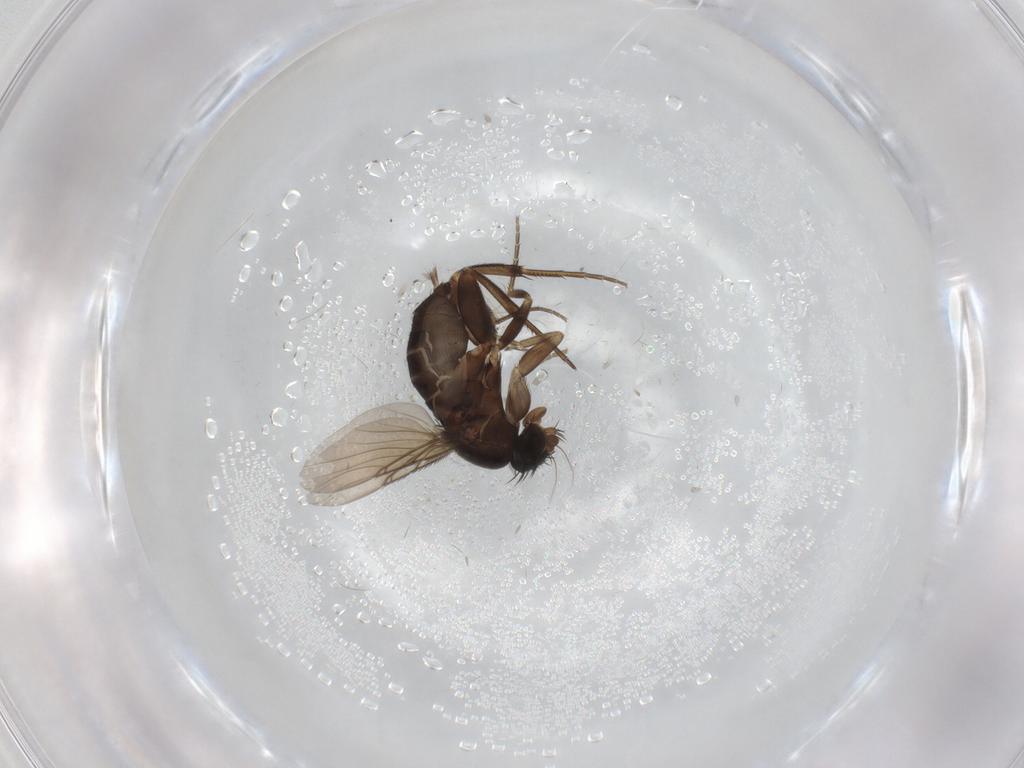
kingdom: Animalia
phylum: Arthropoda
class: Insecta
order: Diptera
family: Phoridae
